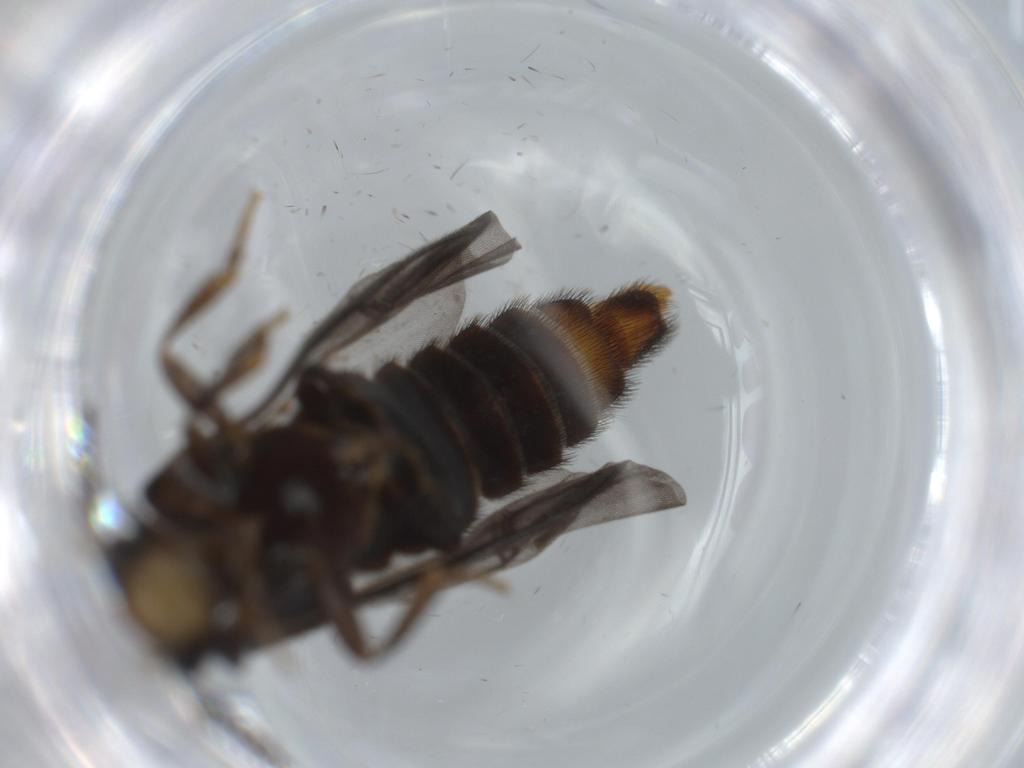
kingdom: Animalia
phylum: Arthropoda
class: Insecta
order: Coleoptera
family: Phengodidae
